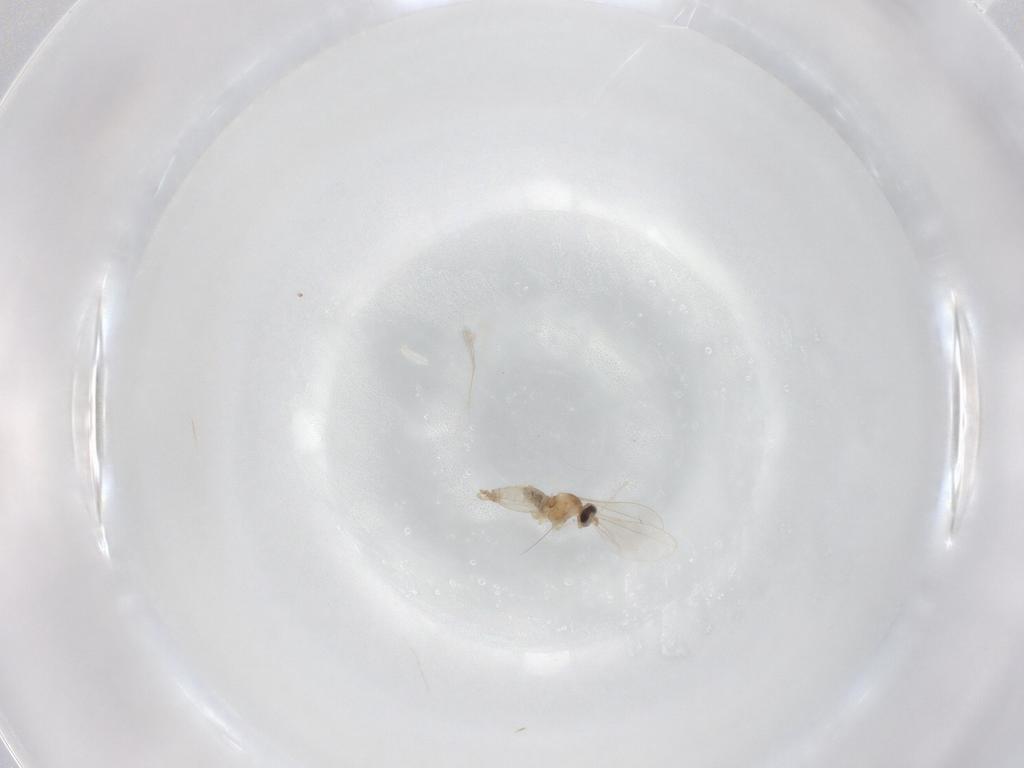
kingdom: Animalia
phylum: Arthropoda
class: Insecta
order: Diptera
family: Cecidomyiidae
